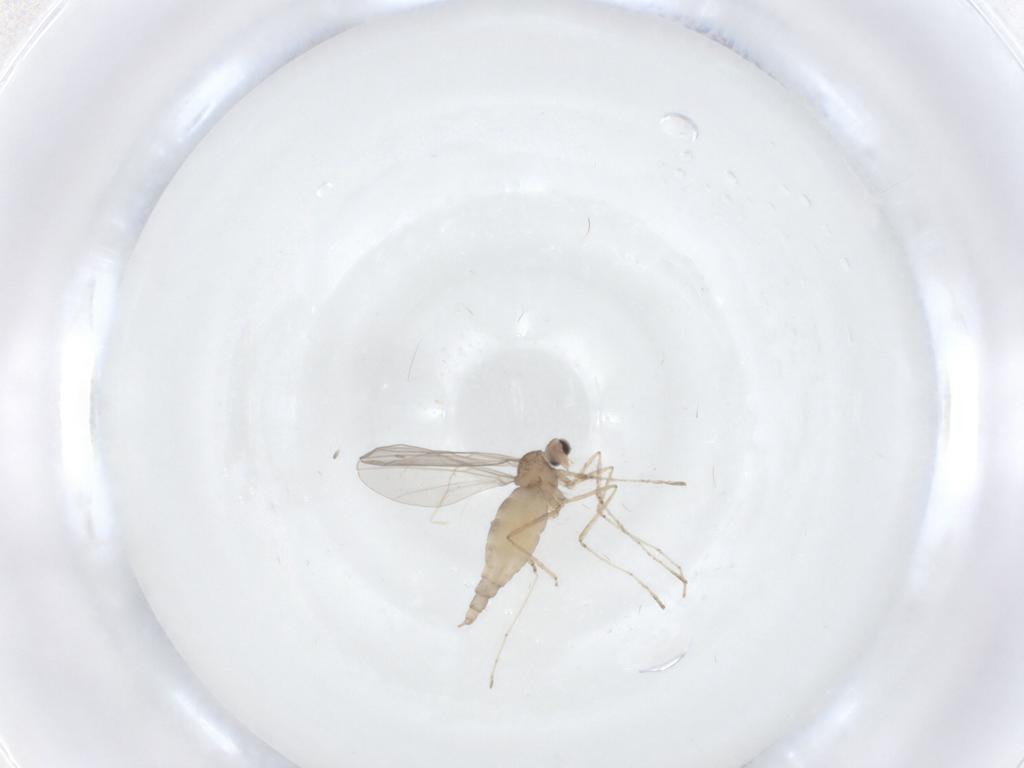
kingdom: Animalia
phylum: Arthropoda
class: Insecta
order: Diptera
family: Cecidomyiidae
